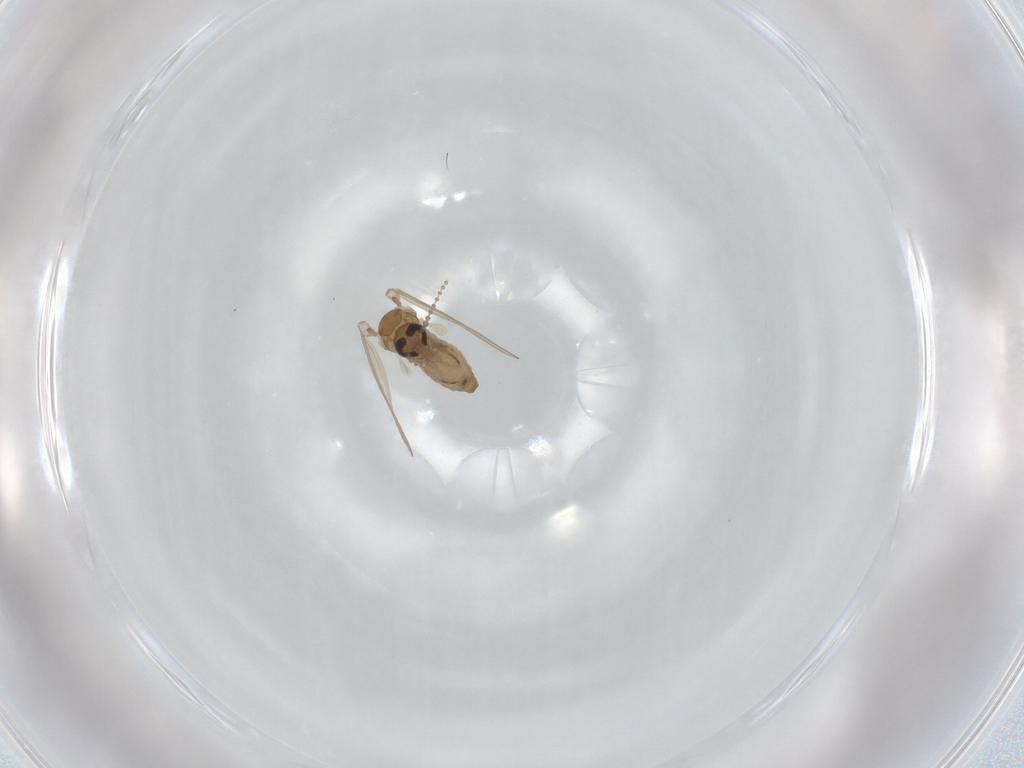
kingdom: Animalia
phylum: Arthropoda
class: Insecta
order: Diptera
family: Psychodidae
